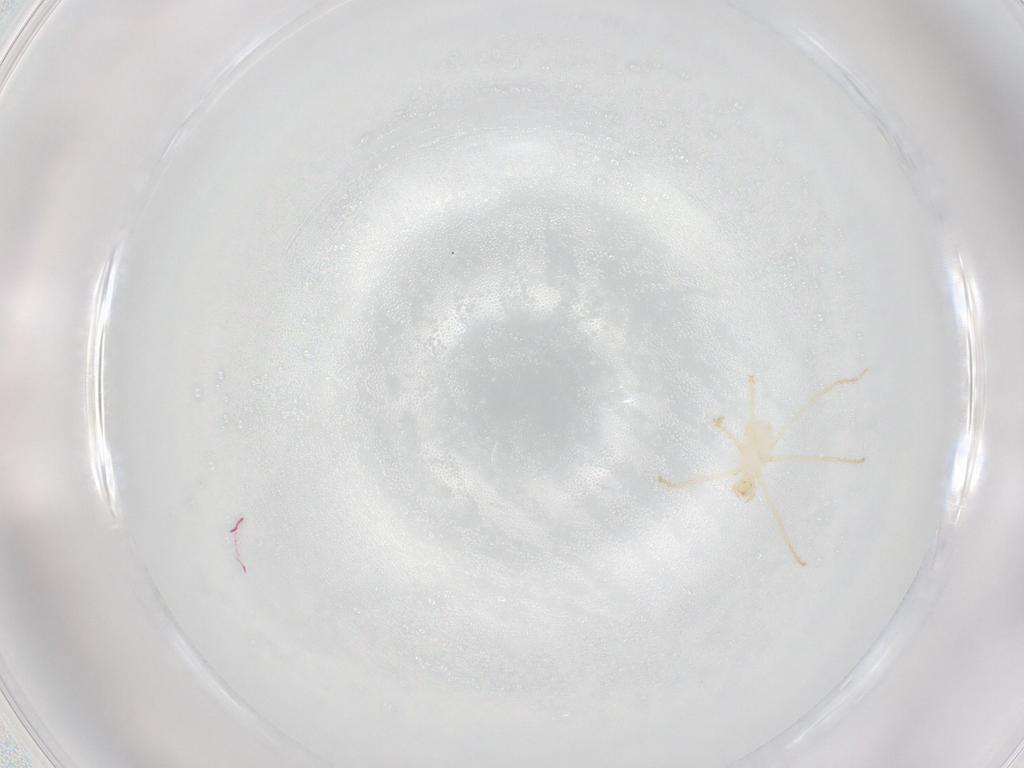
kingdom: Animalia
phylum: Arthropoda
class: Arachnida
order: Trombidiformes
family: Erythraeidae
